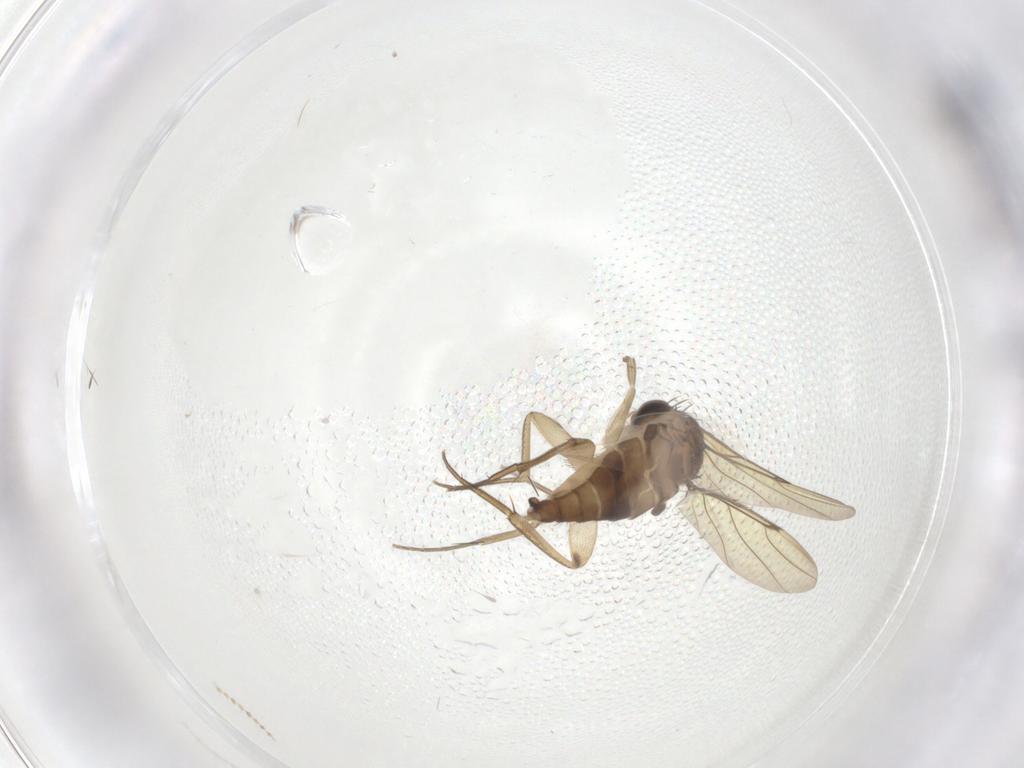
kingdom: Animalia
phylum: Arthropoda
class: Insecta
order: Diptera
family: Phoridae
